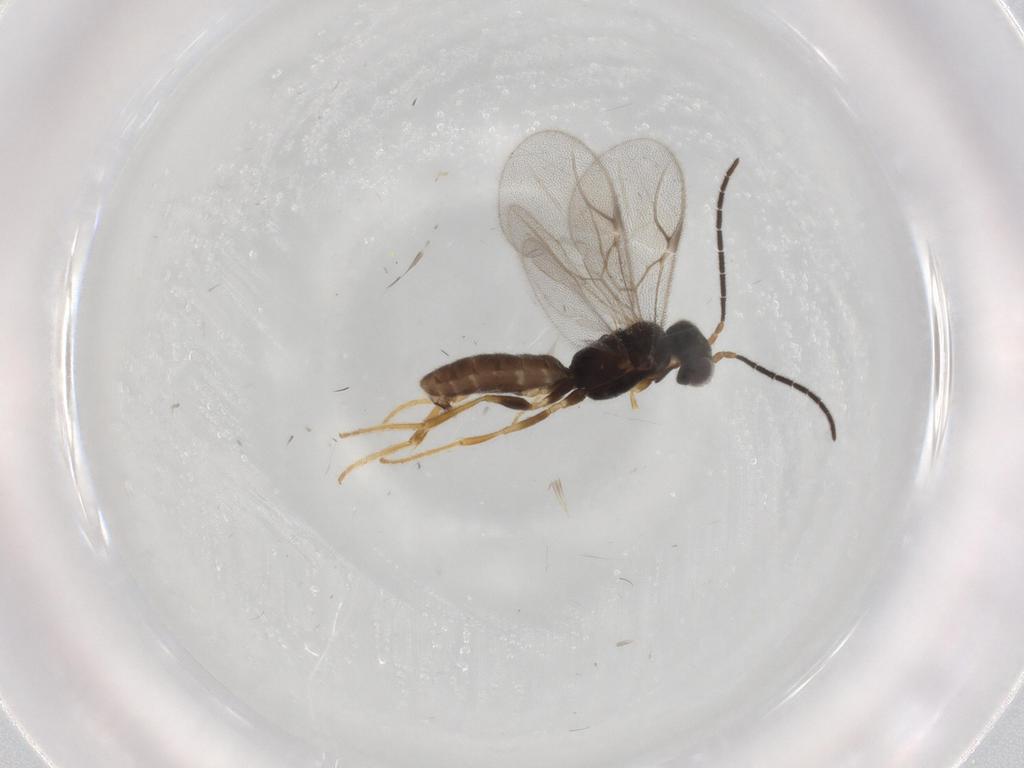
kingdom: Animalia
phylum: Arthropoda
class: Insecta
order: Hymenoptera
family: Dryinidae
